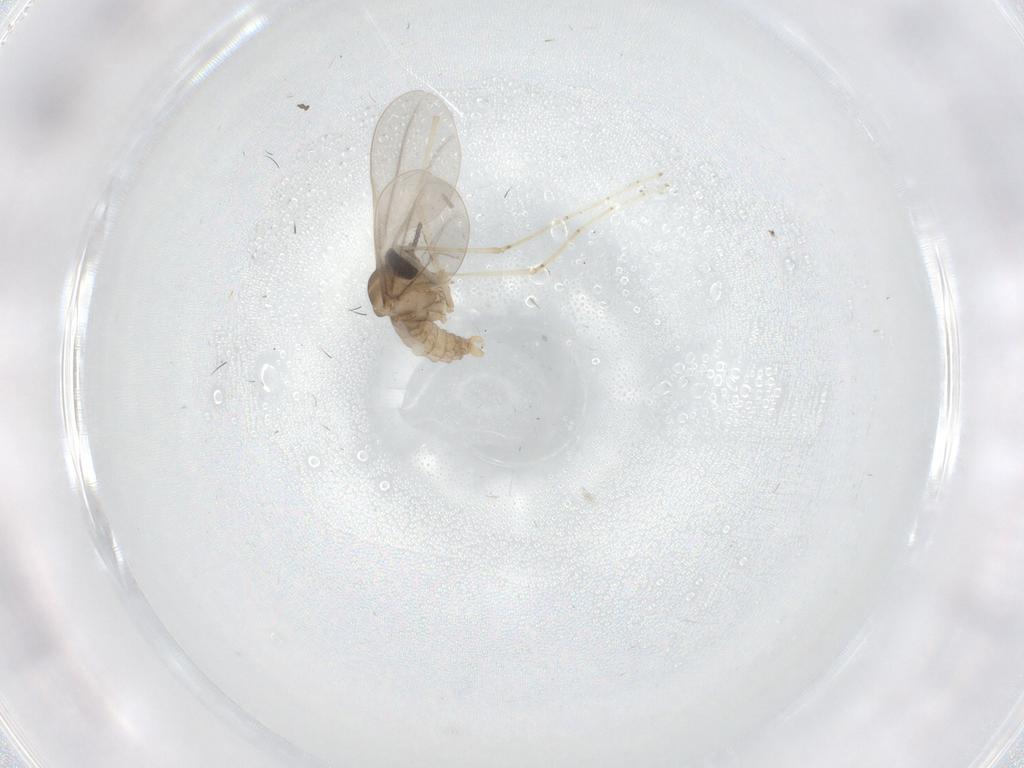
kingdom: Animalia
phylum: Arthropoda
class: Insecta
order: Diptera
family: Cecidomyiidae
